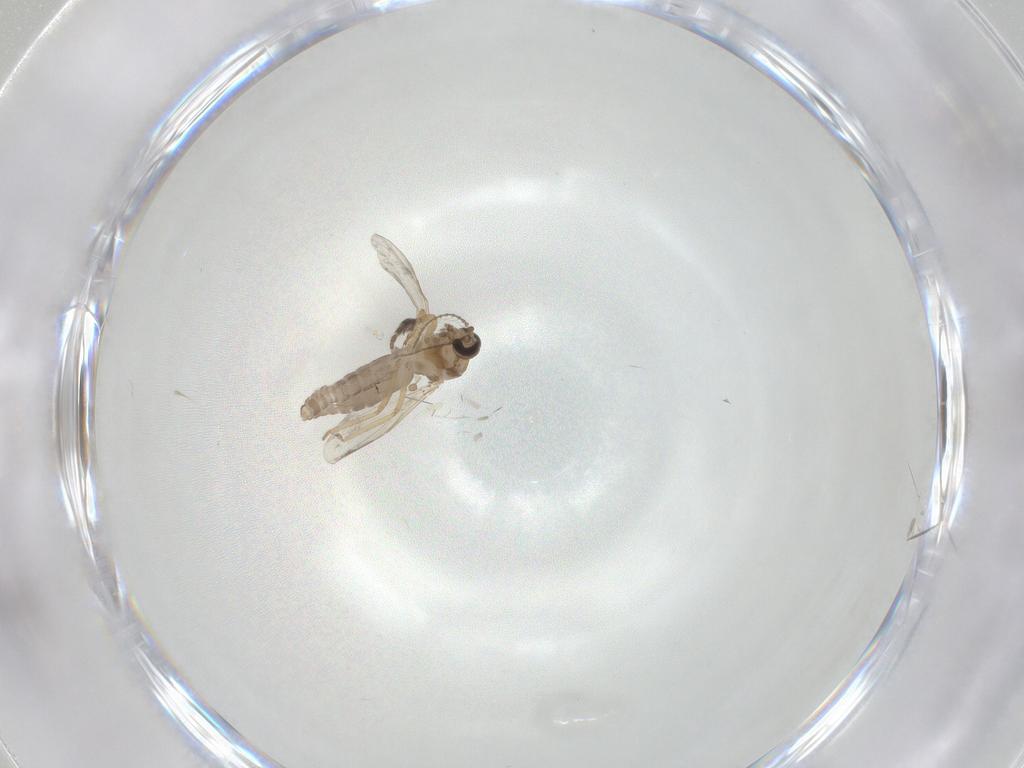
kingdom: Animalia
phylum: Arthropoda
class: Insecta
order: Diptera
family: Ceratopogonidae
